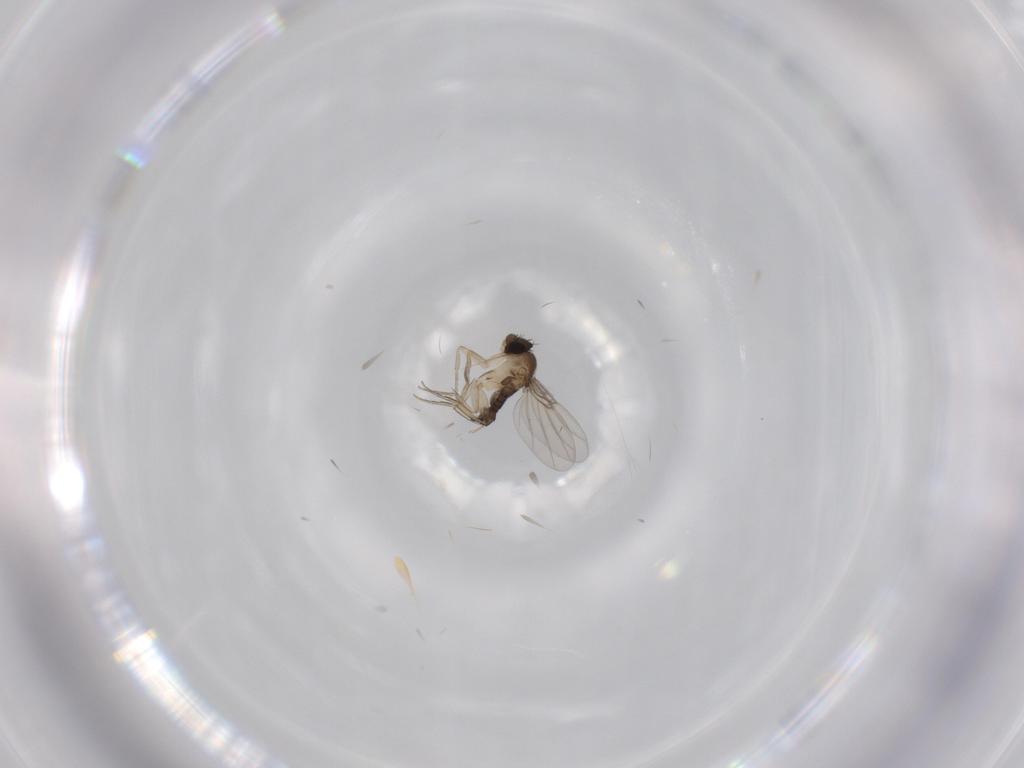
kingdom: Animalia
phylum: Arthropoda
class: Insecta
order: Diptera
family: Phoridae
